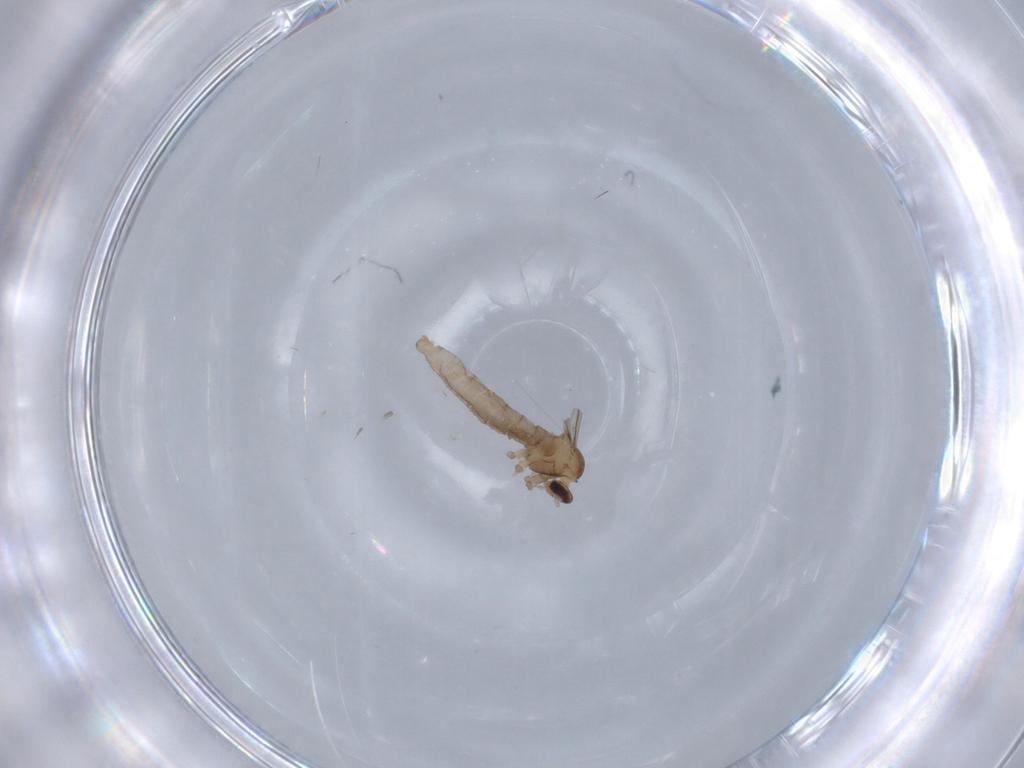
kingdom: Animalia
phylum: Arthropoda
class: Insecta
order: Diptera
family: Cecidomyiidae
